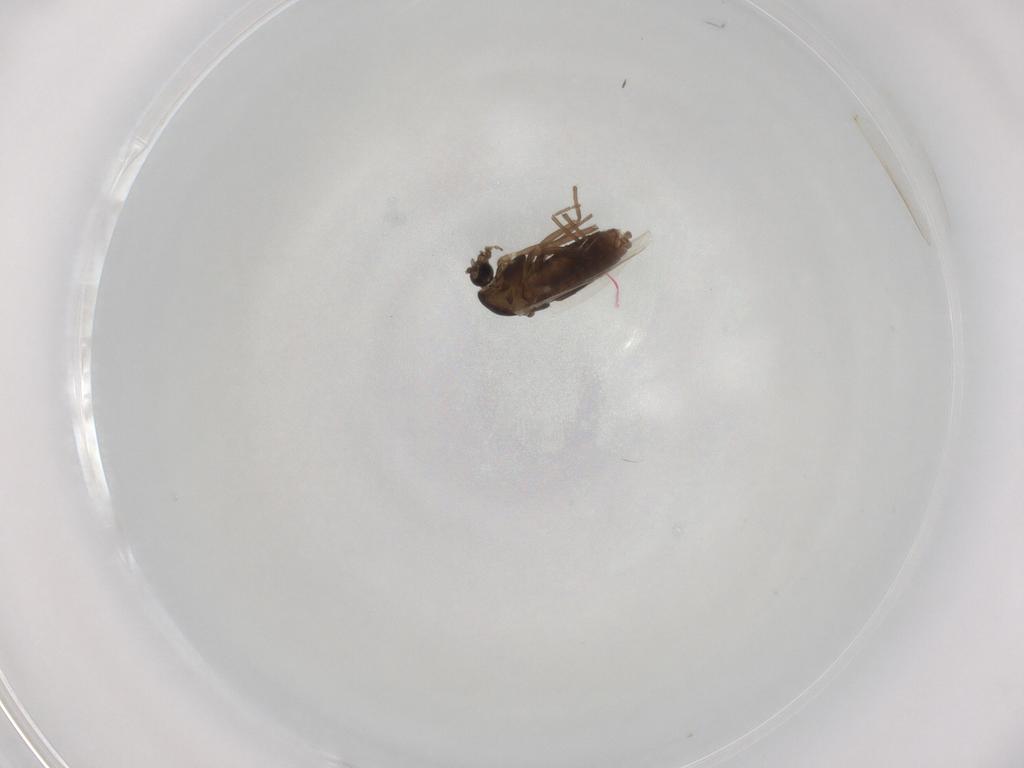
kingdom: Animalia
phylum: Arthropoda
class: Insecta
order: Diptera
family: Chironomidae
